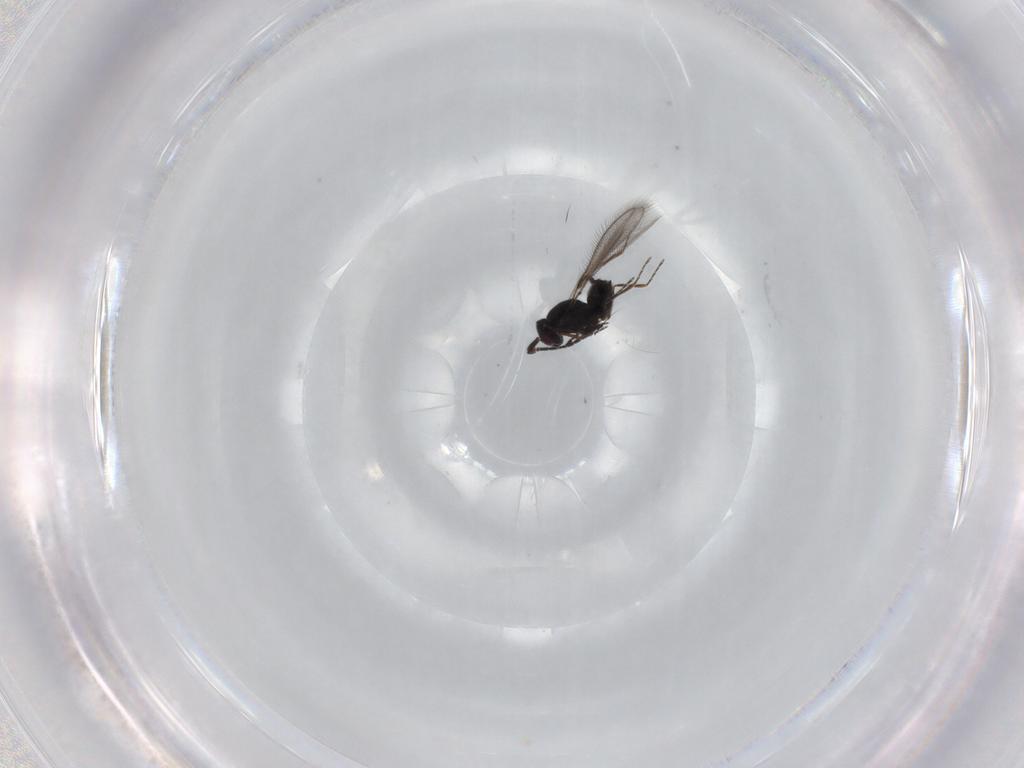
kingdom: Animalia
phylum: Arthropoda
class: Insecta
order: Hymenoptera
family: Mymaridae
